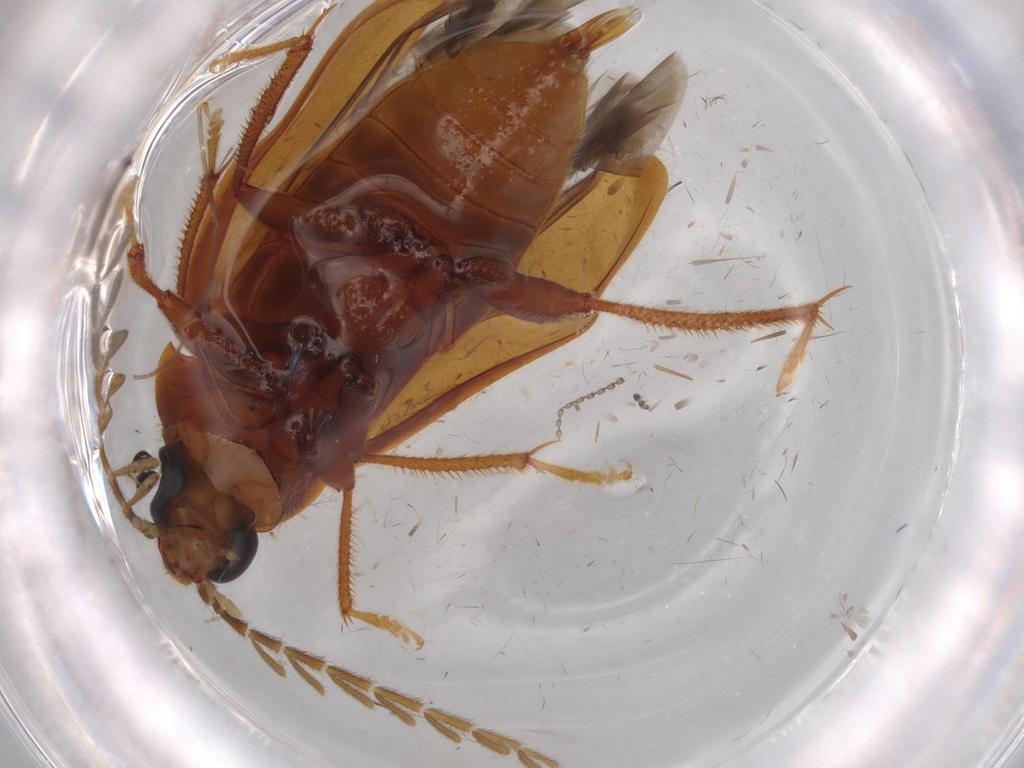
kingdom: Animalia
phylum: Arthropoda
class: Insecta
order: Coleoptera
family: Ptilodactylidae
